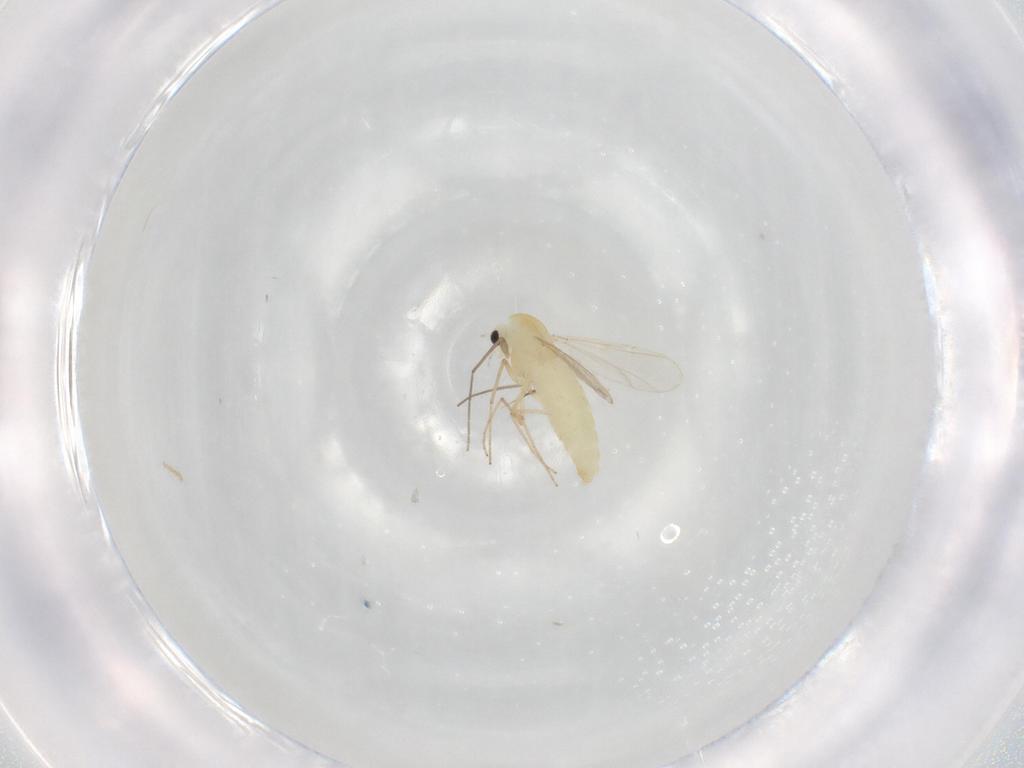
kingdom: Animalia
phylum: Arthropoda
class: Insecta
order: Diptera
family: Chironomidae
